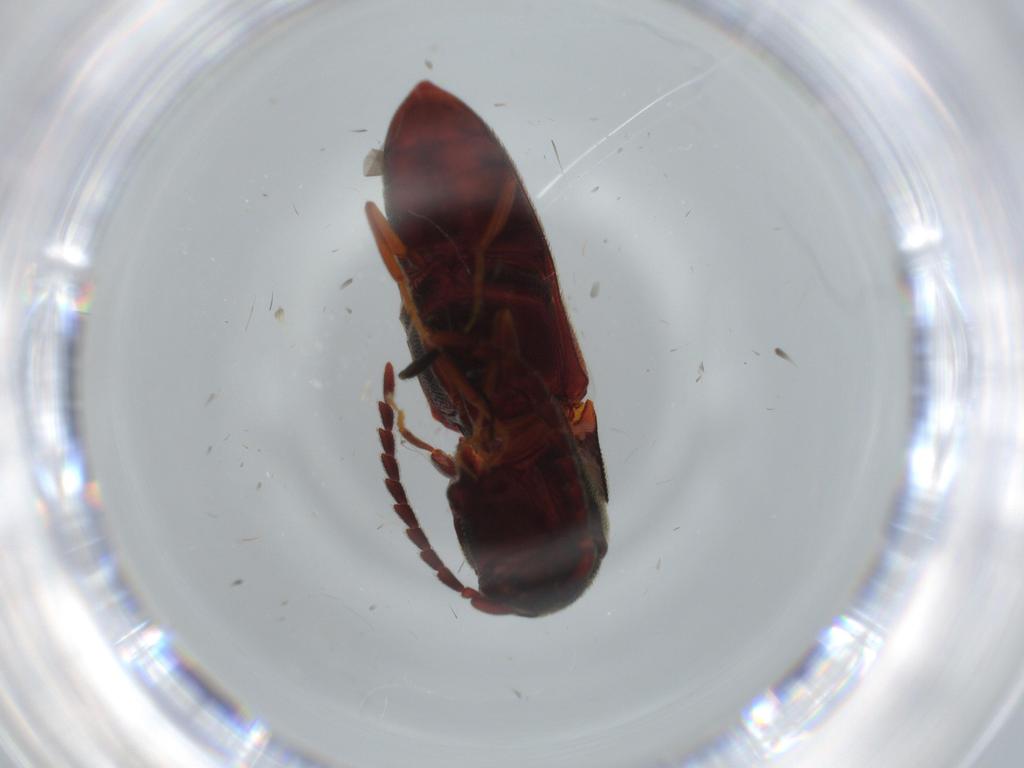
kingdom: Animalia
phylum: Arthropoda
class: Insecta
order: Coleoptera
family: Eucnemidae
